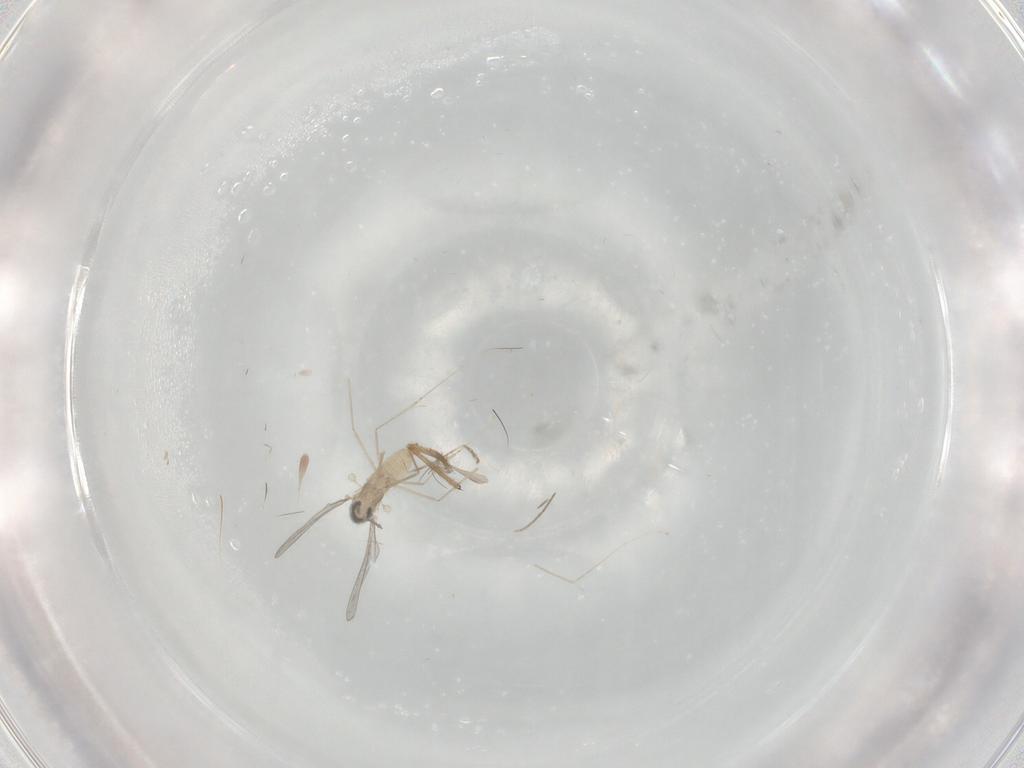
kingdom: Animalia
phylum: Arthropoda
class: Insecta
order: Diptera
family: Chironomidae
